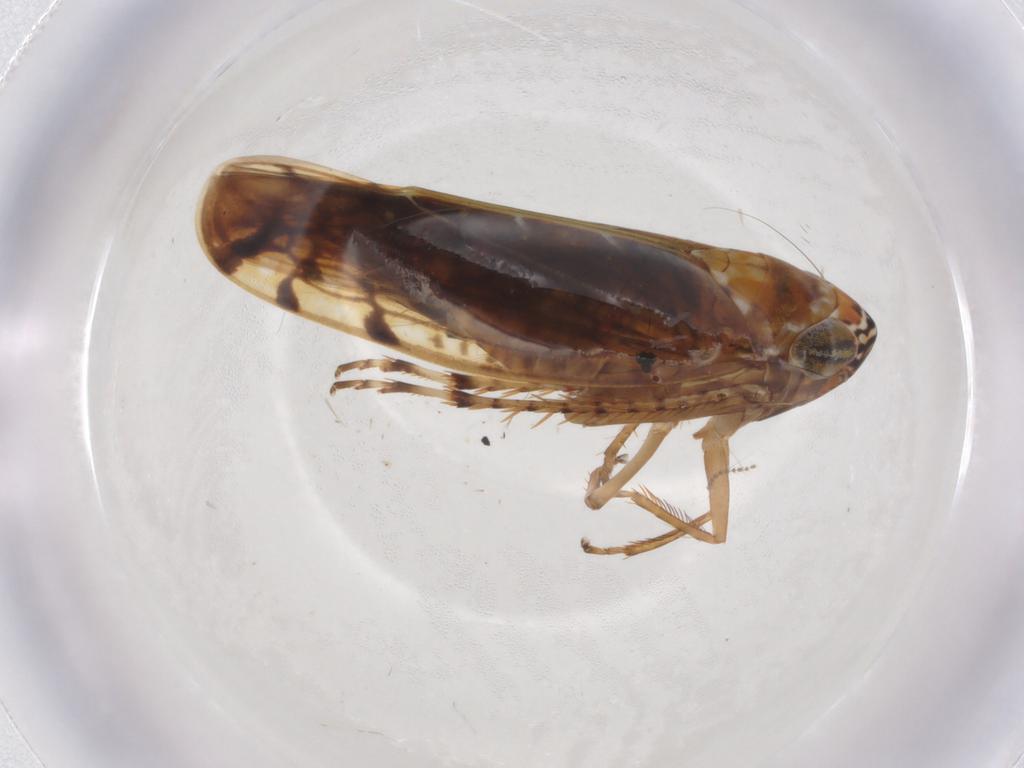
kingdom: Animalia
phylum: Arthropoda
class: Insecta
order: Hemiptera
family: Cicadellidae
